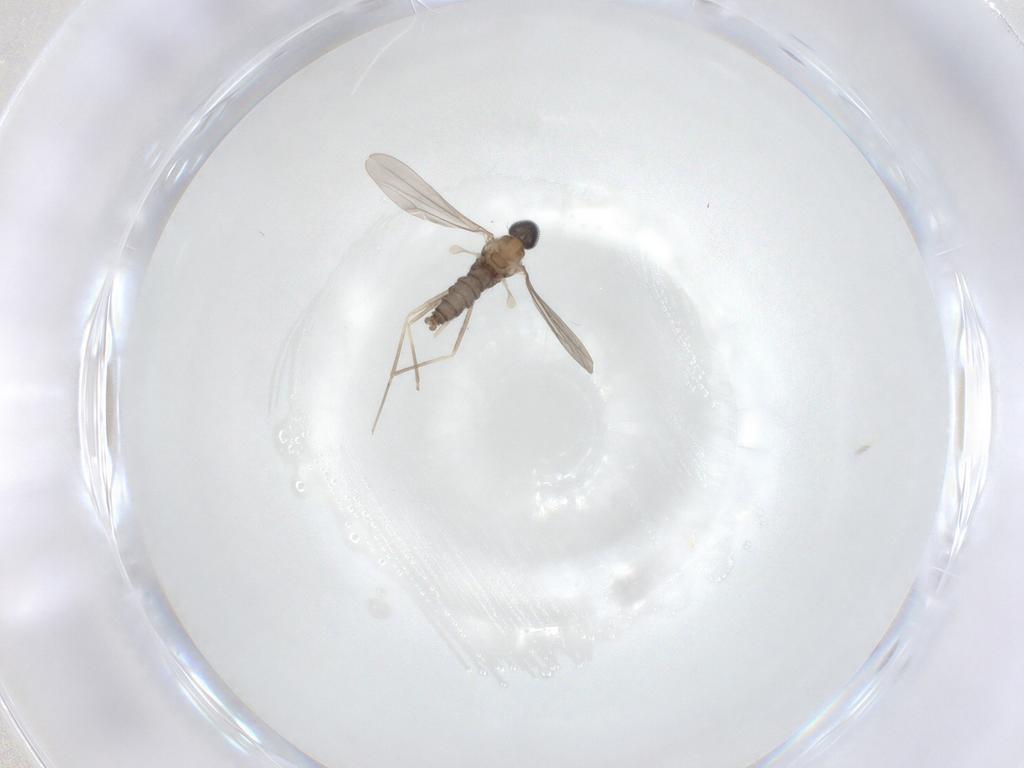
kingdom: Animalia
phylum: Arthropoda
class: Insecta
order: Diptera
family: Cecidomyiidae
